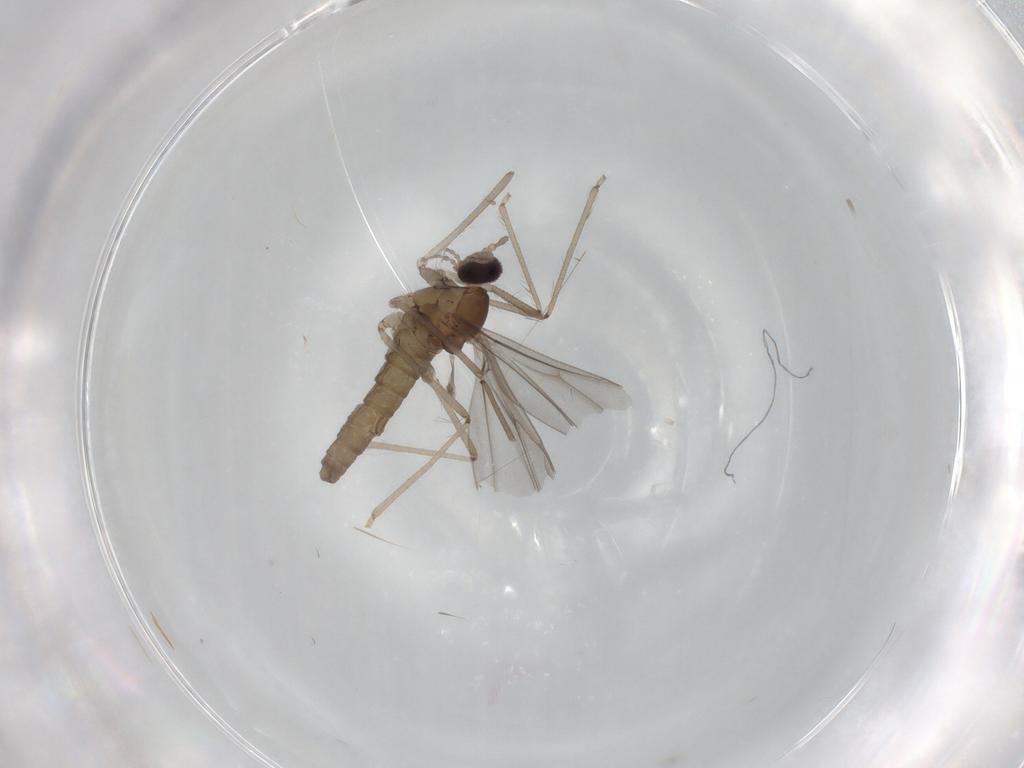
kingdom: Animalia
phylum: Arthropoda
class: Insecta
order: Diptera
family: Cecidomyiidae
